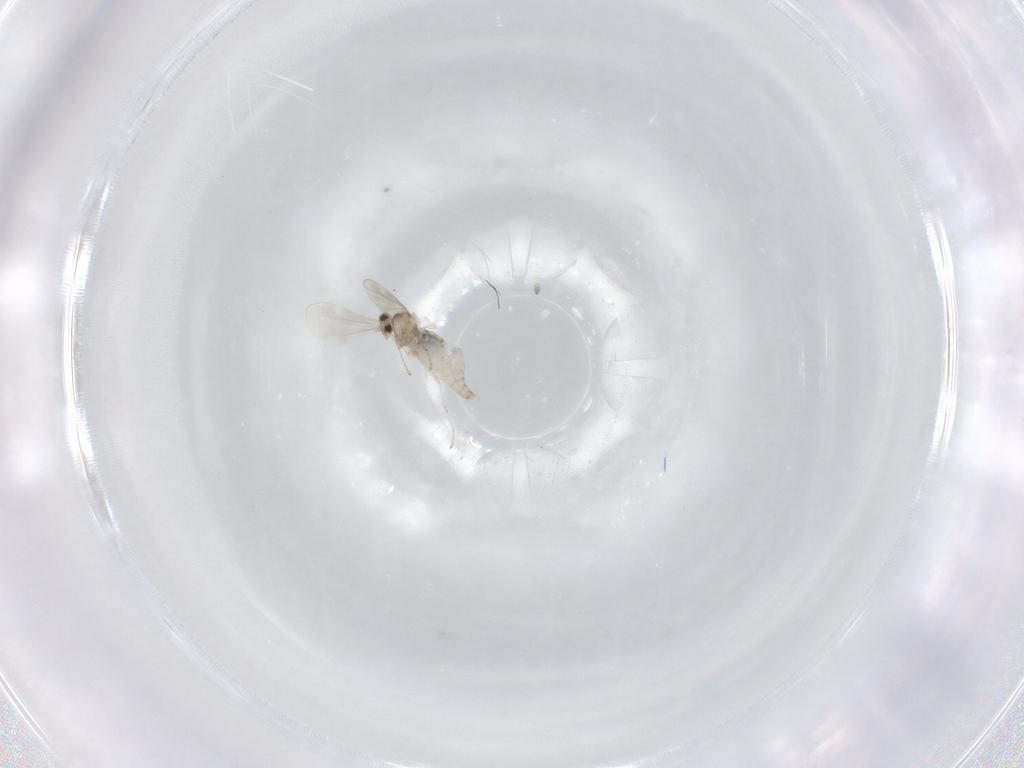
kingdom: Animalia
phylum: Arthropoda
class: Insecta
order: Diptera
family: Cecidomyiidae
